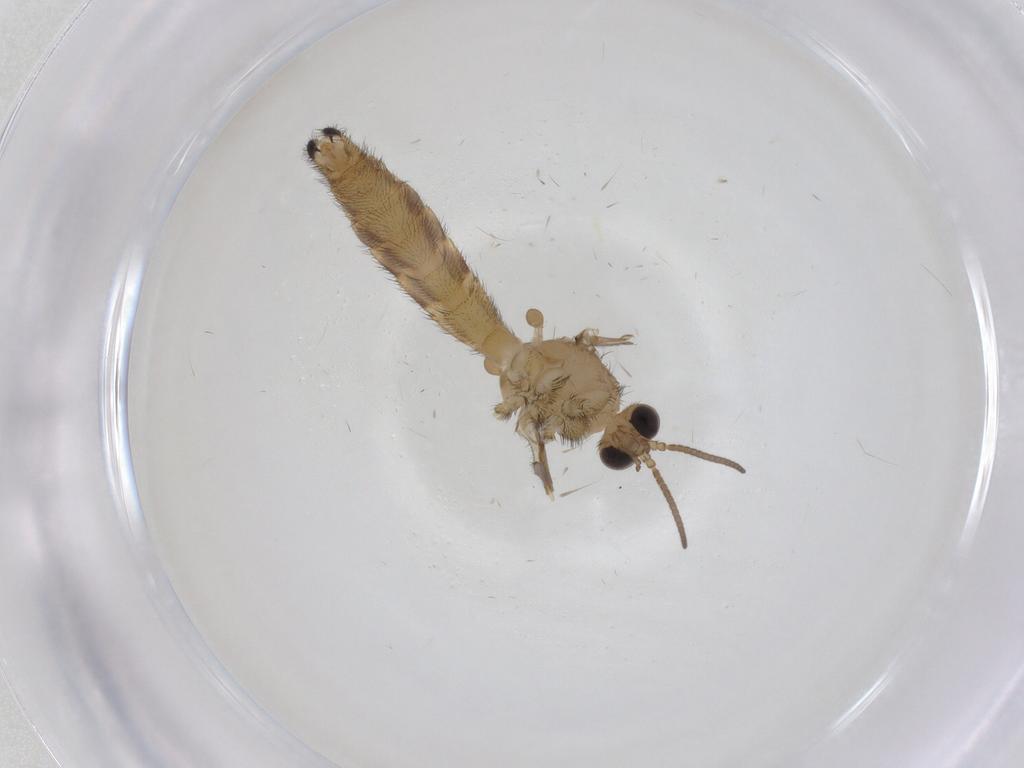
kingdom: Animalia
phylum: Arthropoda
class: Insecta
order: Diptera
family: Keroplatidae
